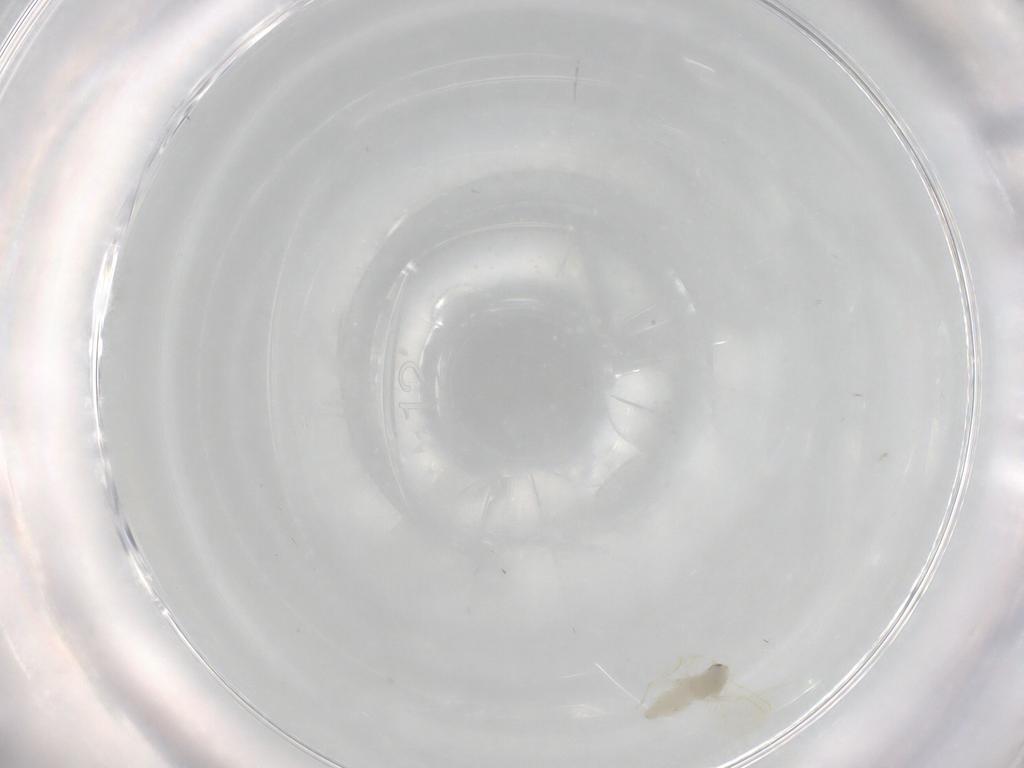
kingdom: Animalia
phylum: Arthropoda
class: Insecta
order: Hemiptera
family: Aleyrodidae
